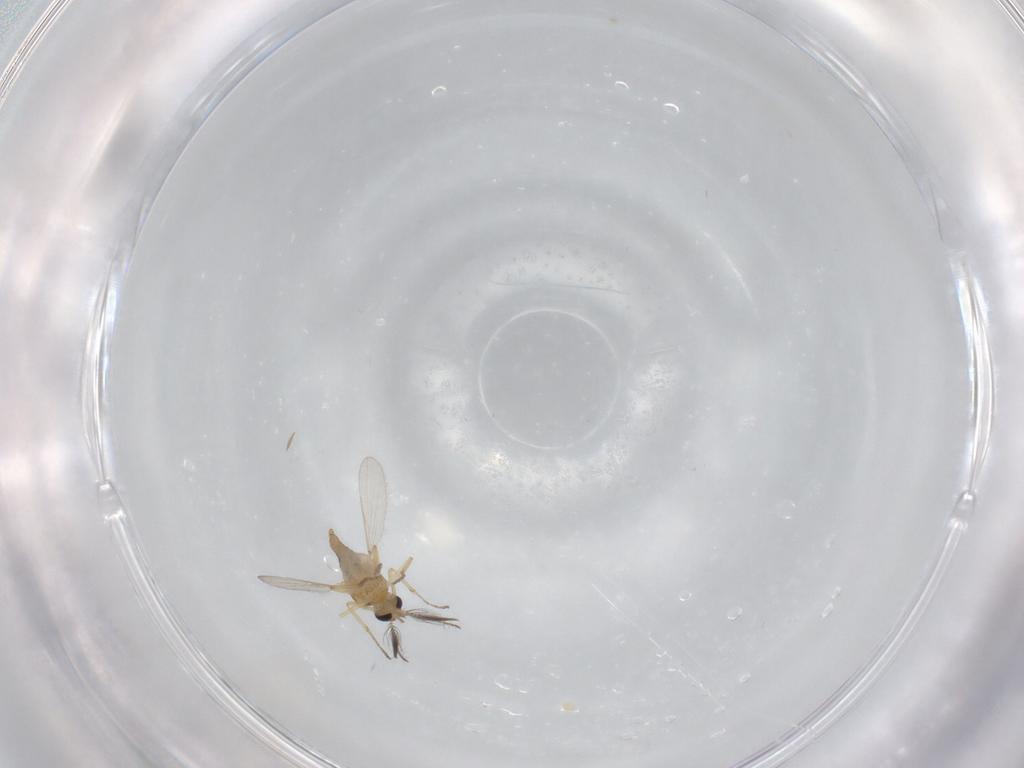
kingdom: Animalia
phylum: Arthropoda
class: Insecta
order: Diptera
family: Ceratopogonidae
